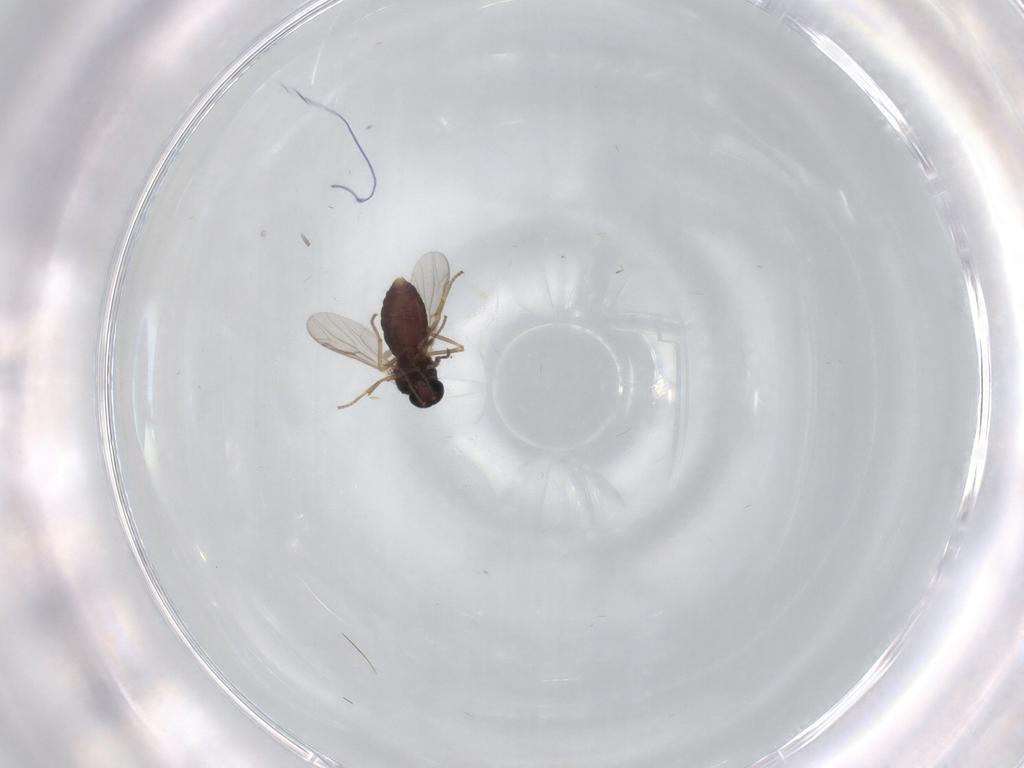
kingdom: Animalia
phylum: Arthropoda
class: Insecta
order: Diptera
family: Ceratopogonidae
